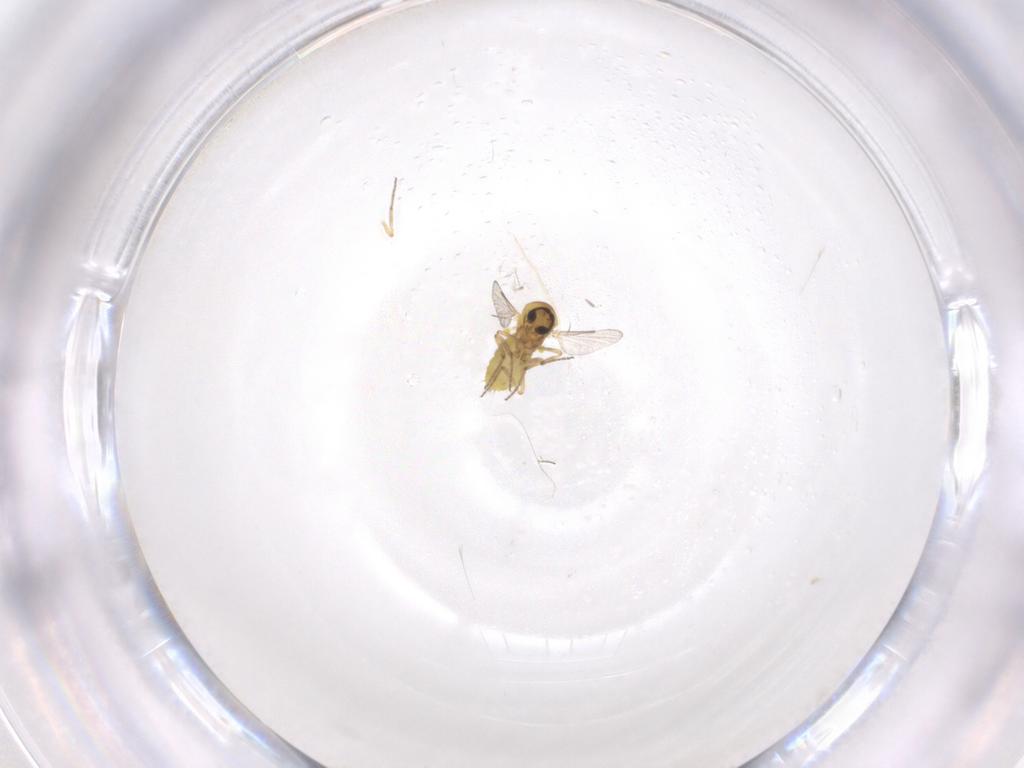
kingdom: Animalia
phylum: Arthropoda
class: Insecta
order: Diptera
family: Ceratopogonidae
